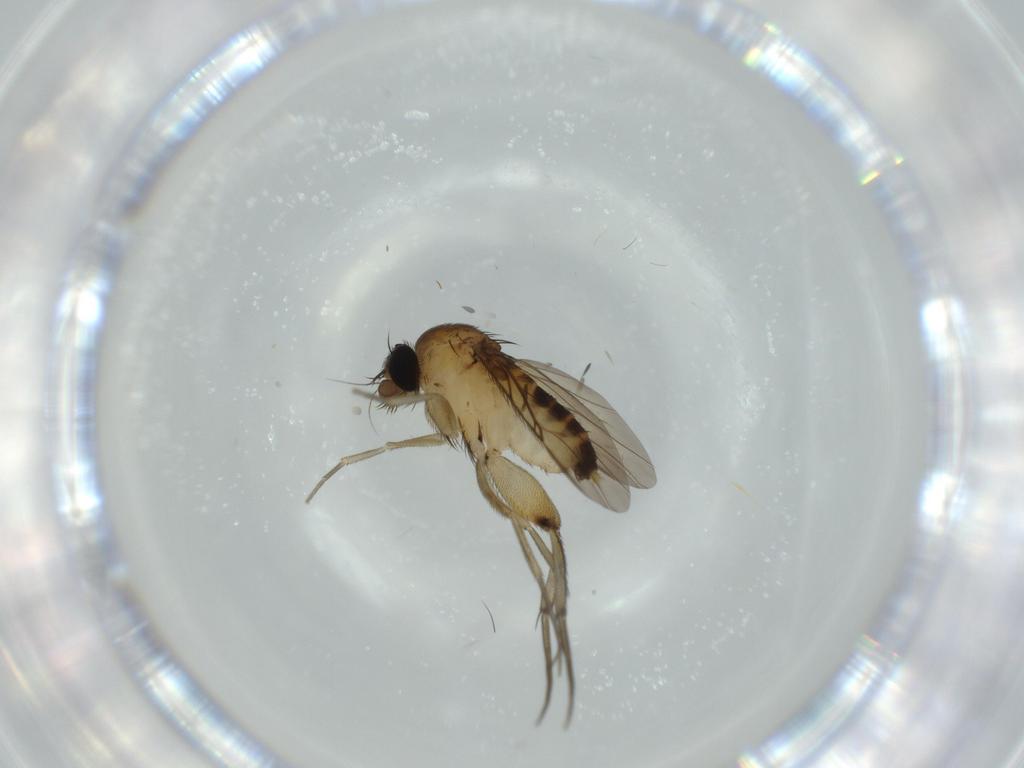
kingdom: Animalia
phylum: Arthropoda
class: Insecta
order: Diptera
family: Phoridae
